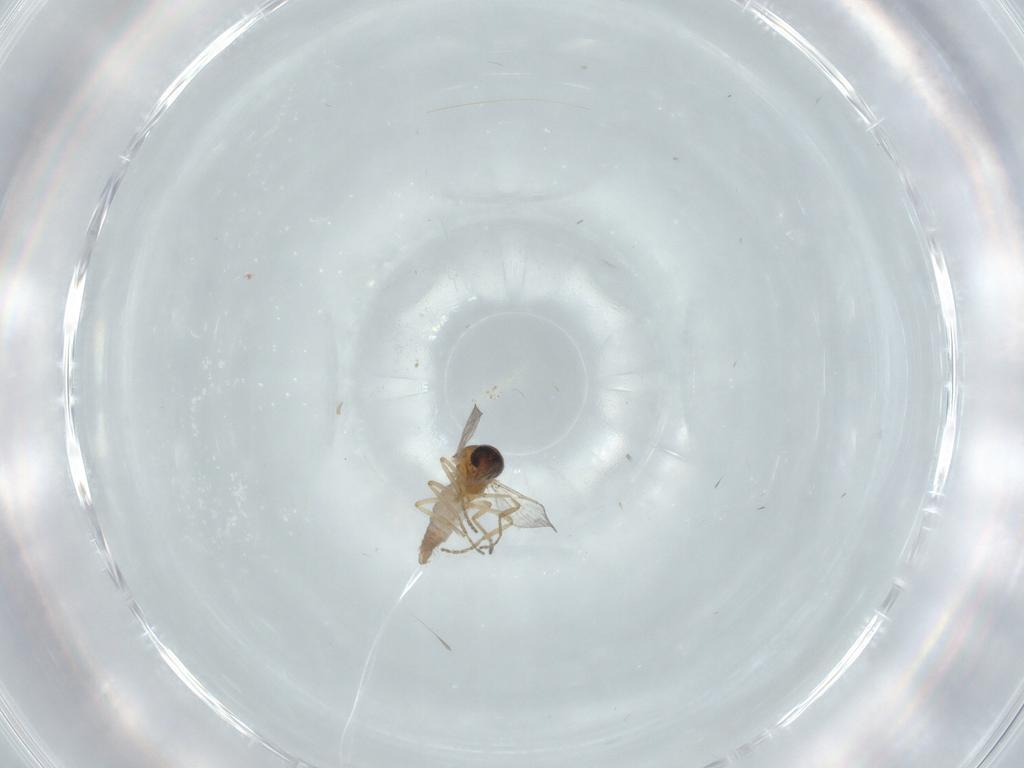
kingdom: Animalia
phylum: Arthropoda
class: Insecta
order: Diptera
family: Ceratopogonidae
